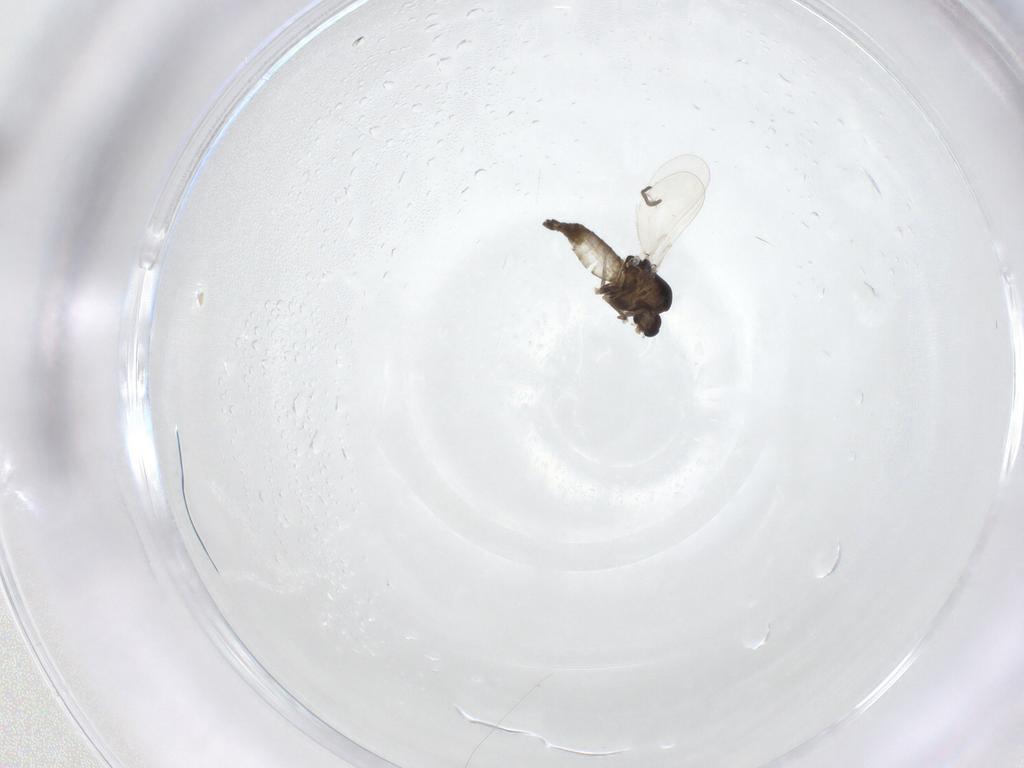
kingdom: Animalia
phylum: Arthropoda
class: Insecta
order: Diptera
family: Chironomidae
